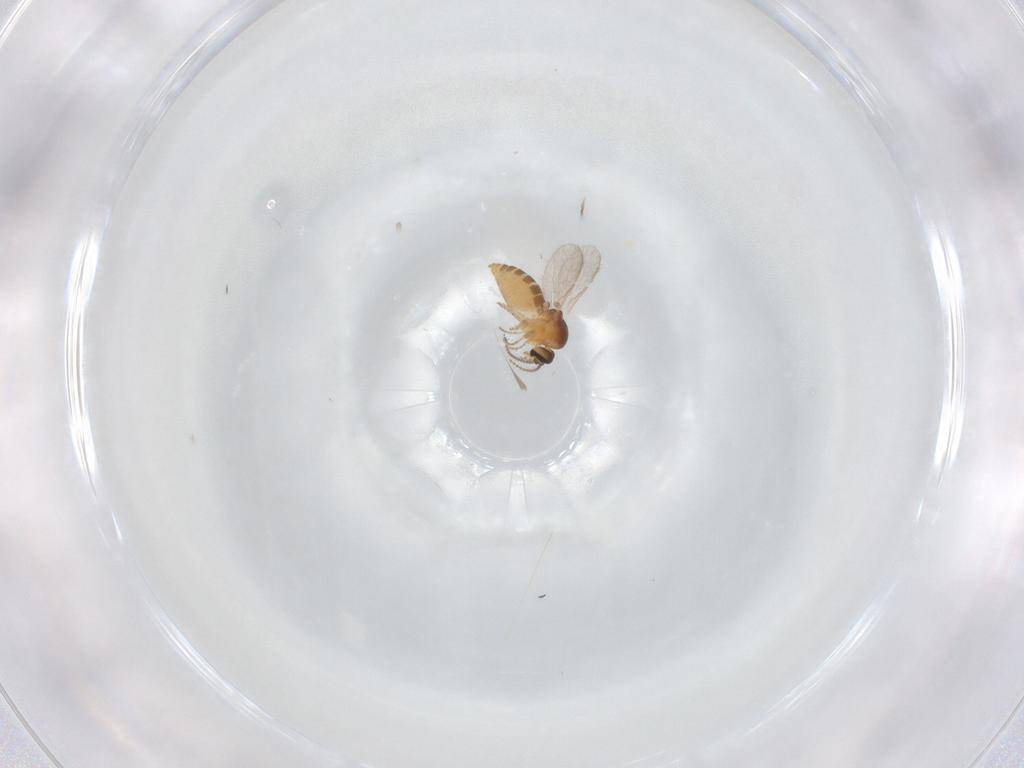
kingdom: Animalia
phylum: Arthropoda
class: Insecta
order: Diptera
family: Ceratopogonidae
